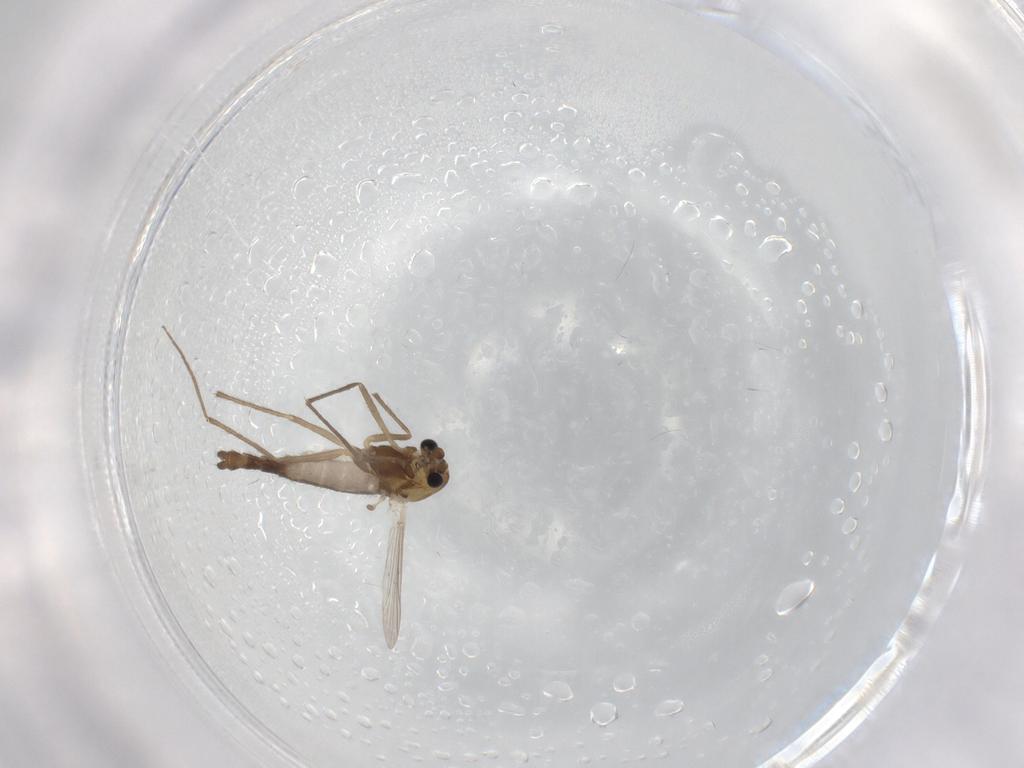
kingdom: Animalia
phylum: Arthropoda
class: Insecta
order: Diptera
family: Chironomidae
